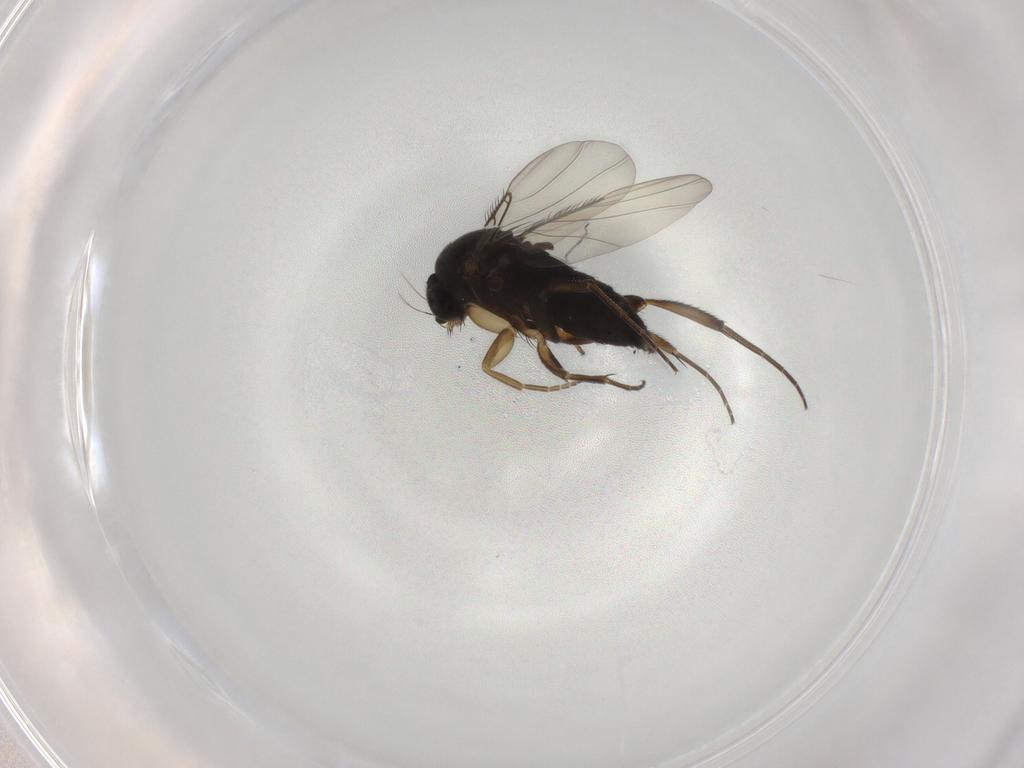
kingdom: Animalia
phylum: Arthropoda
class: Insecta
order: Diptera
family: Phoridae
